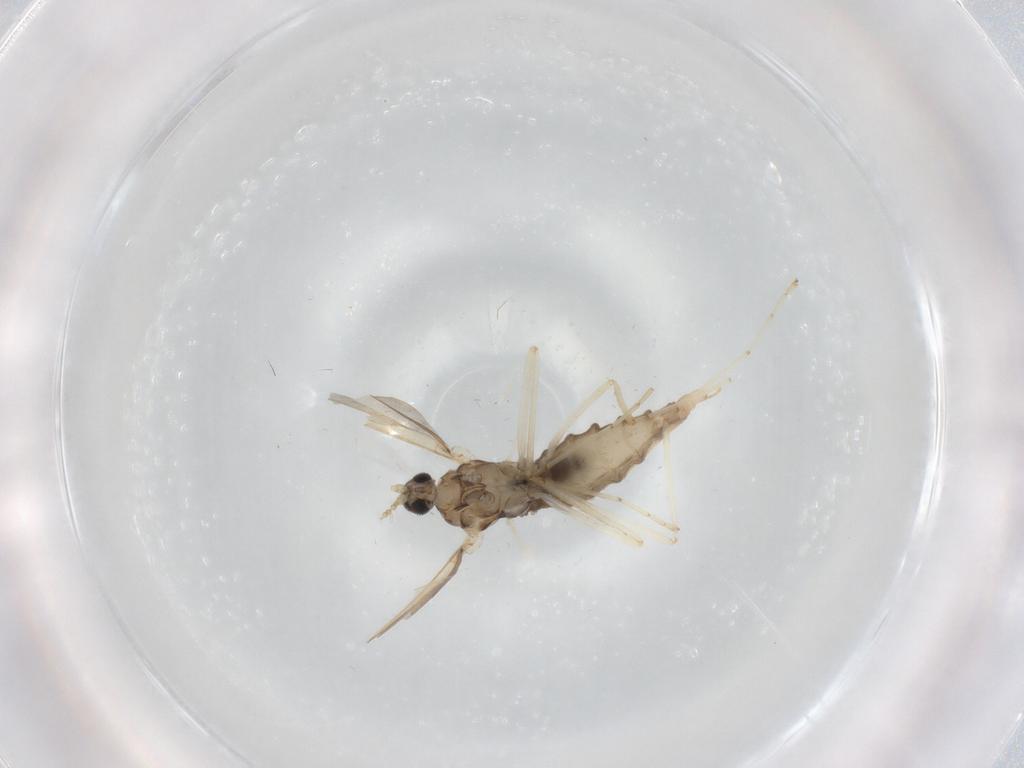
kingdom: Animalia
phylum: Arthropoda
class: Insecta
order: Diptera
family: Cecidomyiidae
